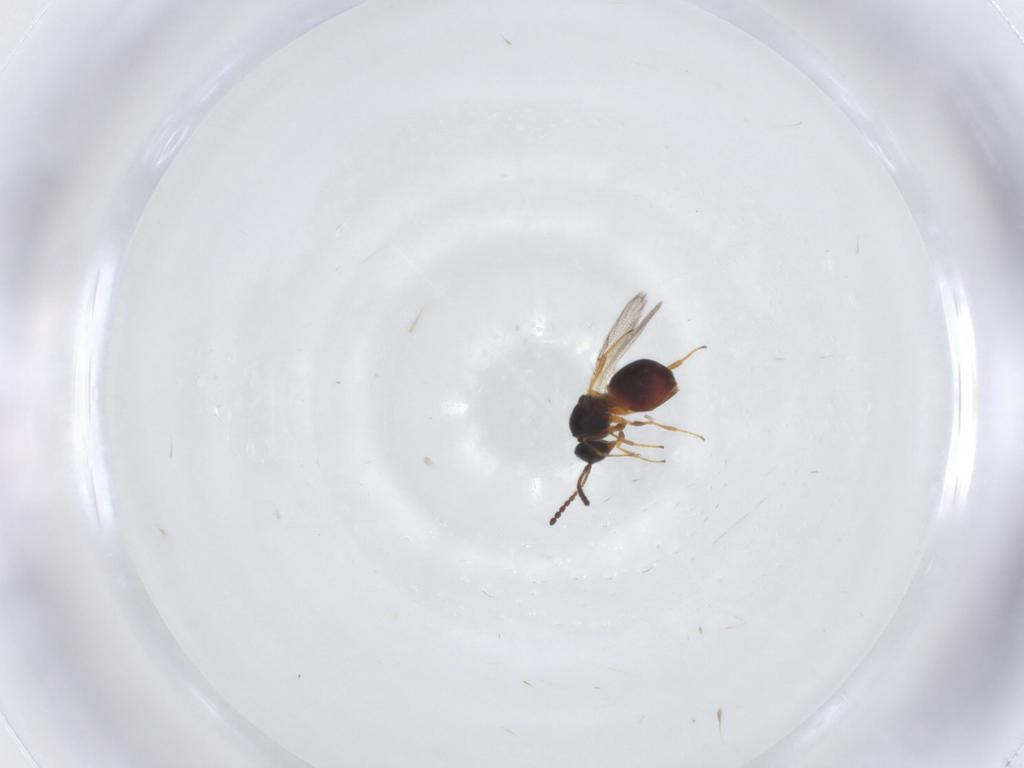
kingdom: Animalia
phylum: Arthropoda
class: Insecta
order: Hymenoptera
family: Figitidae
